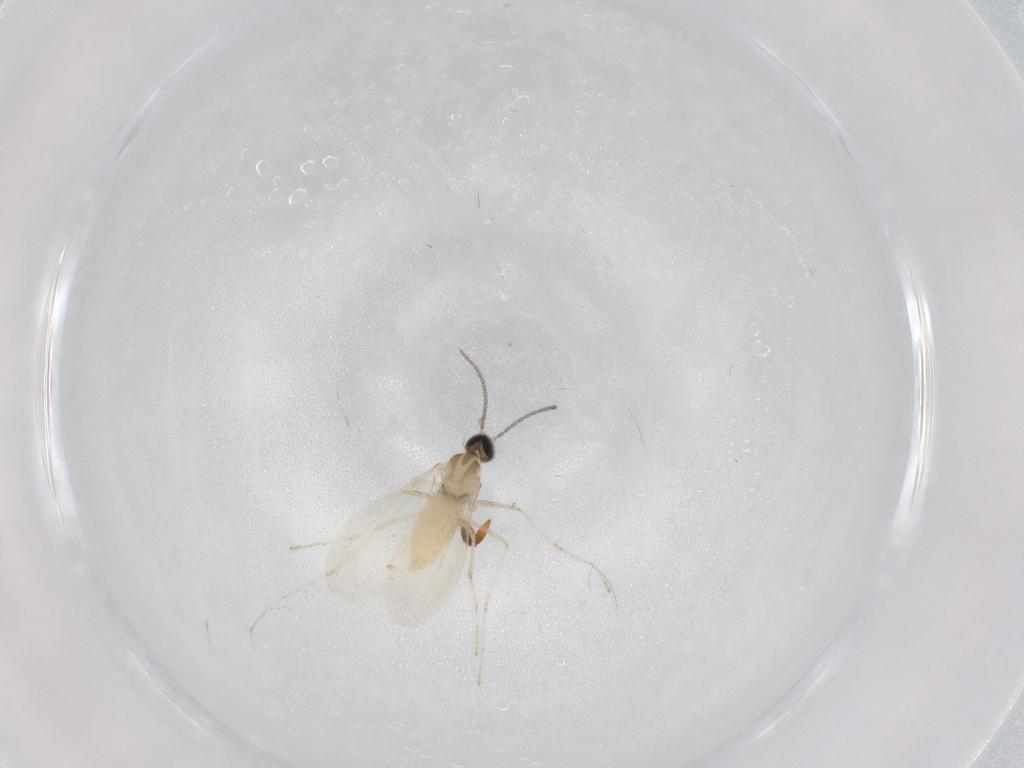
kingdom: Animalia
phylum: Arthropoda
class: Insecta
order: Diptera
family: Cecidomyiidae
